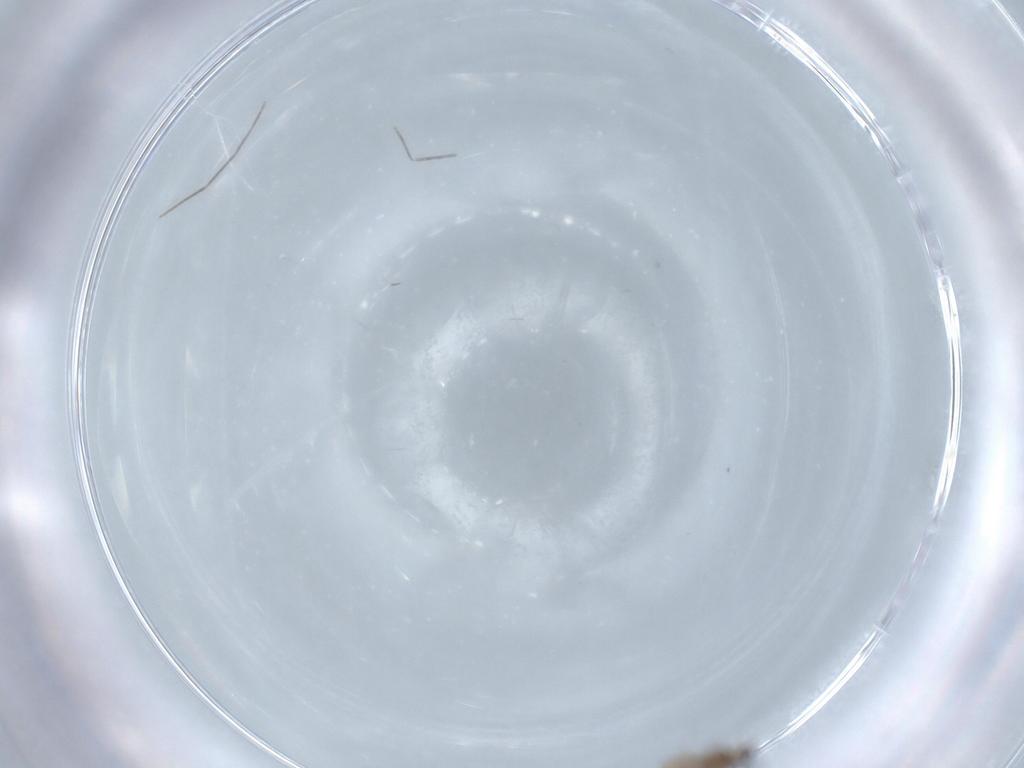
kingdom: Animalia
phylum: Arthropoda
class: Insecta
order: Diptera
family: Cecidomyiidae
